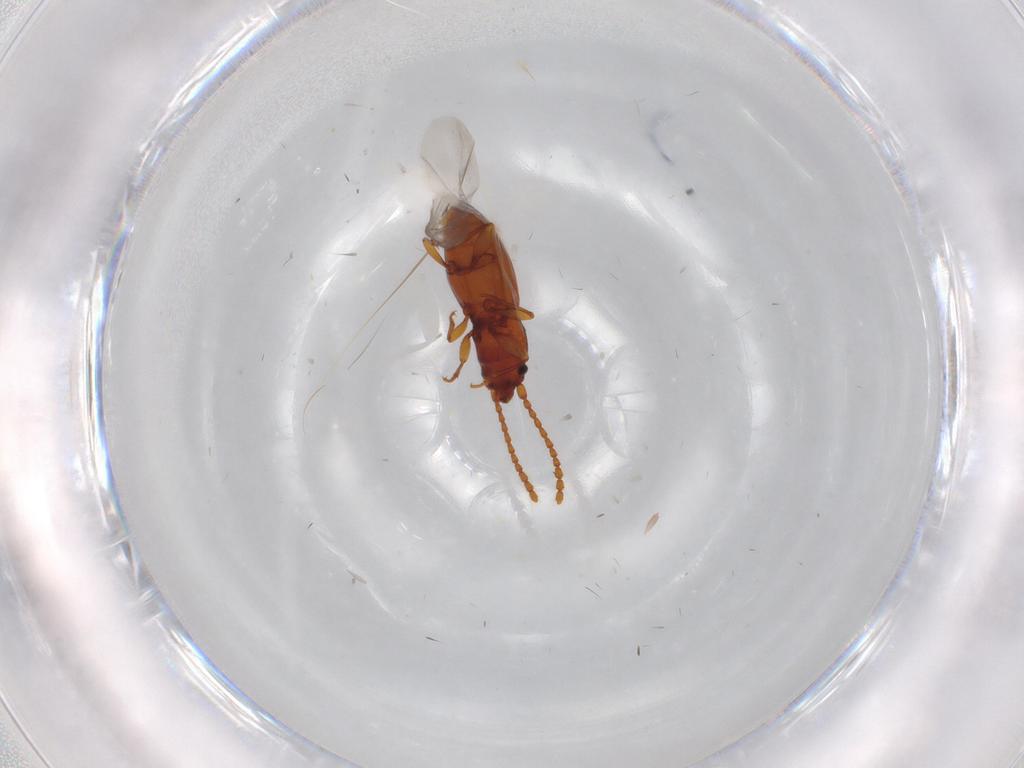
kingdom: Animalia
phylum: Arthropoda
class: Insecta
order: Coleoptera
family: Laemophloeidae
